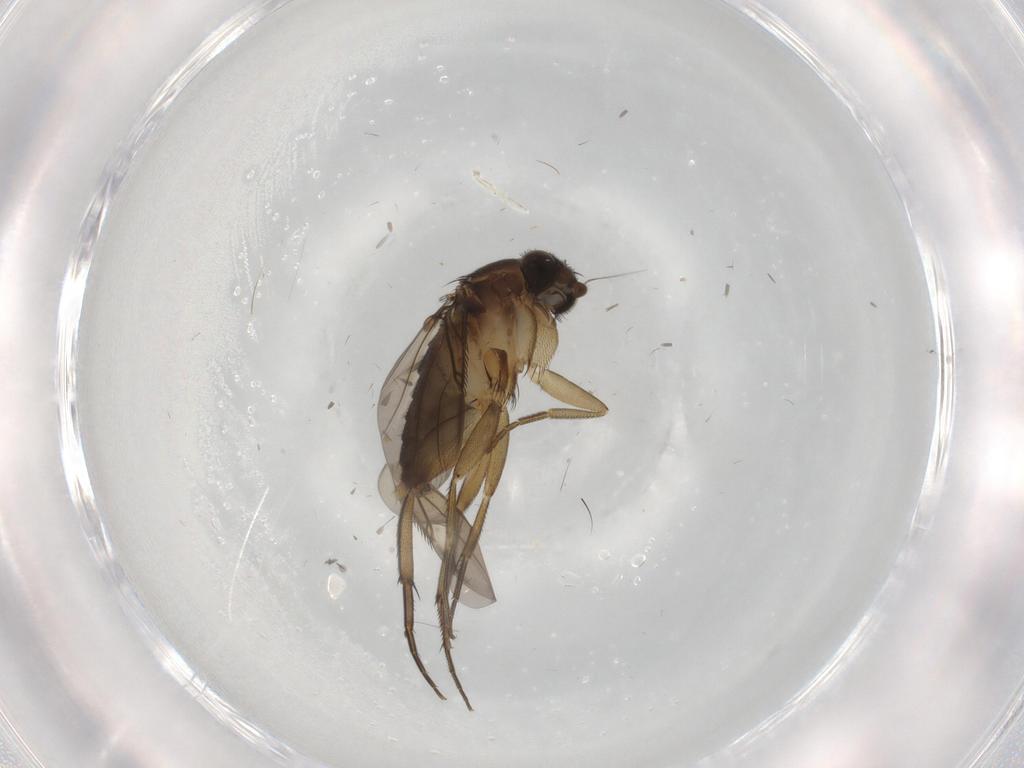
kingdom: Animalia
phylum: Arthropoda
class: Insecta
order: Diptera
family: Phoridae
